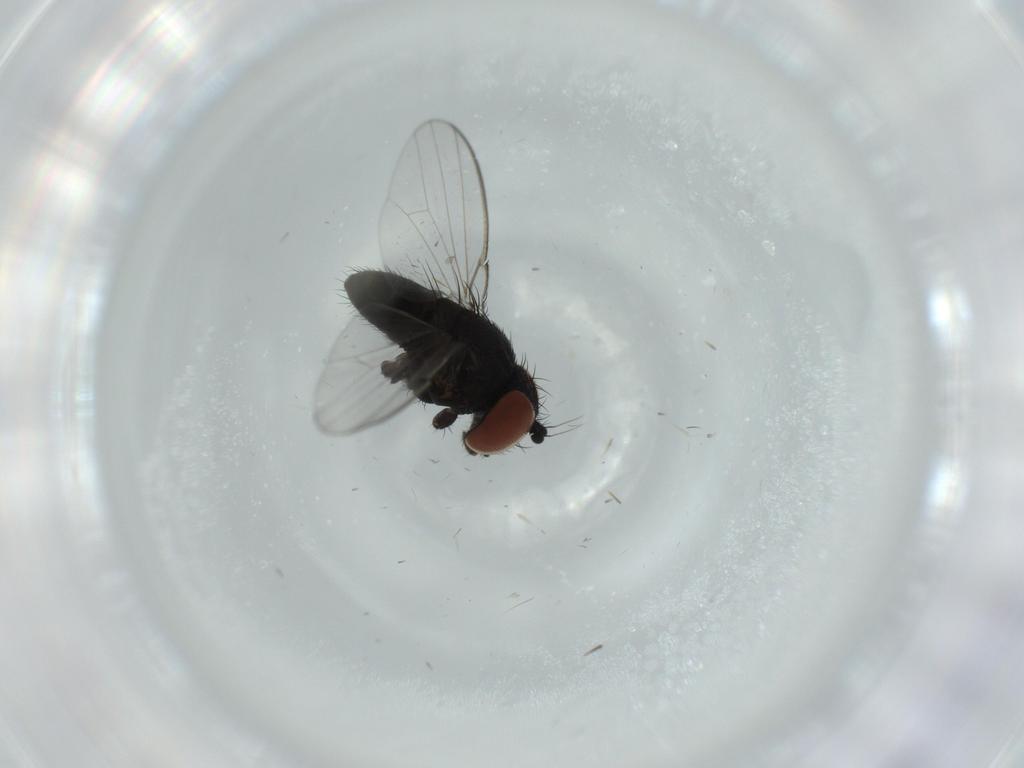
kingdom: Animalia
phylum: Arthropoda
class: Insecta
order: Diptera
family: Milichiidae
